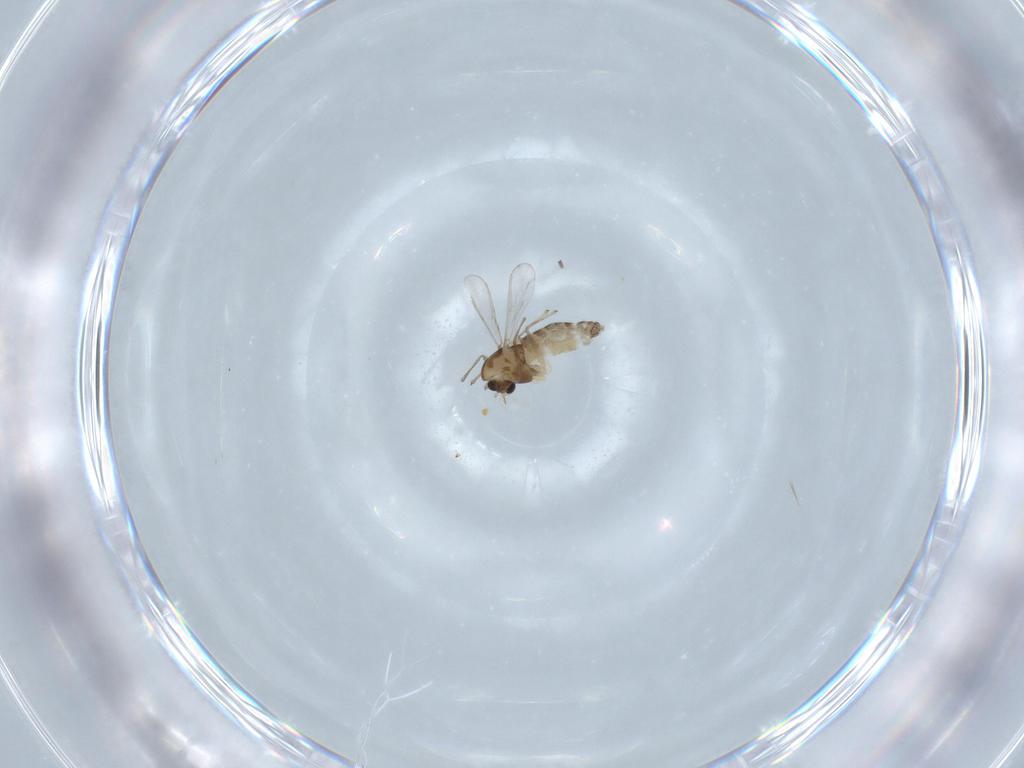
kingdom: Animalia
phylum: Arthropoda
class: Insecta
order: Diptera
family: Chironomidae
